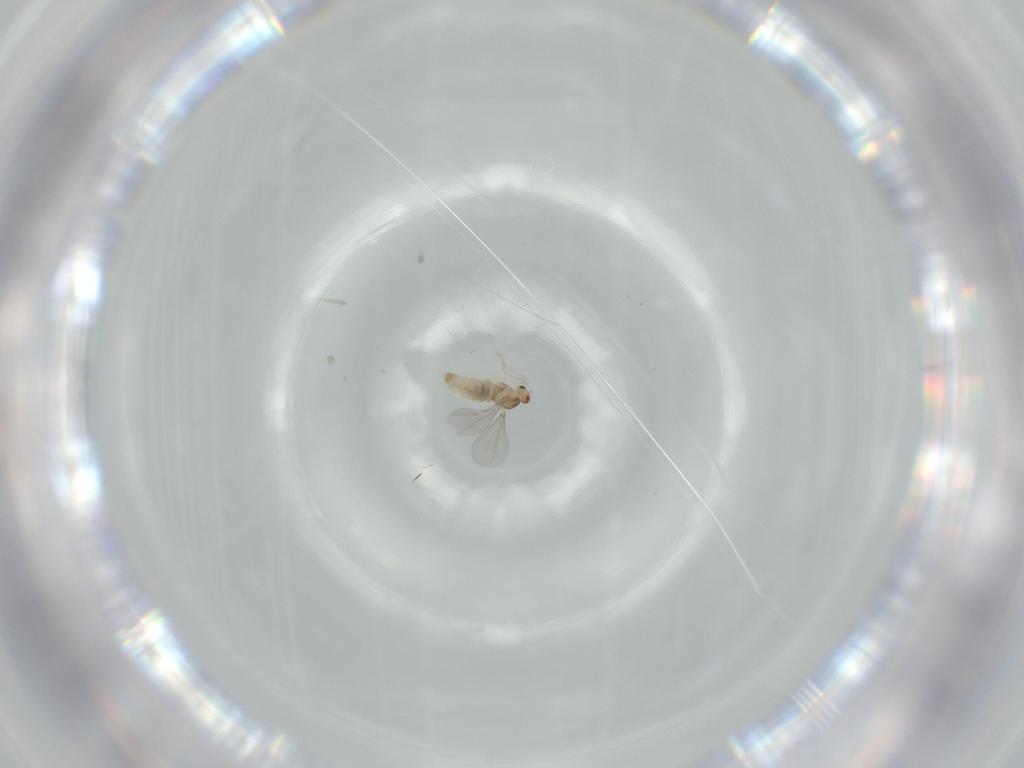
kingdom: Animalia
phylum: Arthropoda
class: Insecta
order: Diptera
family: Cecidomyiidae
